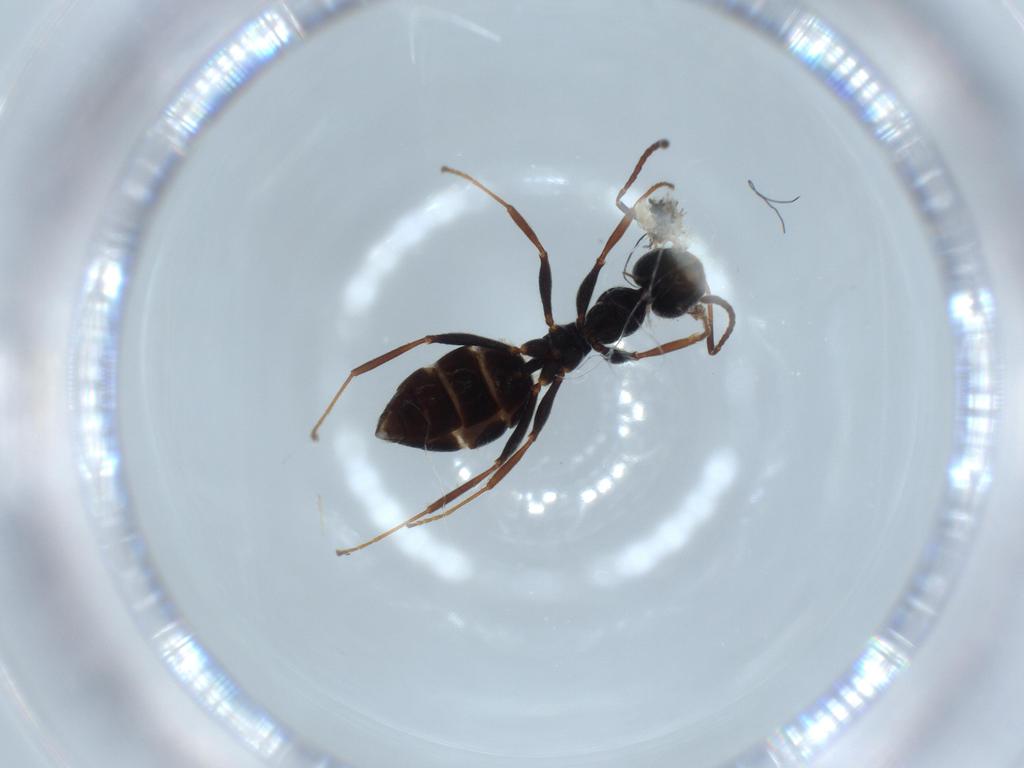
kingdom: Animalia
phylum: Arthropoda
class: Insecta
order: Hymenoptera
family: Formicidae
